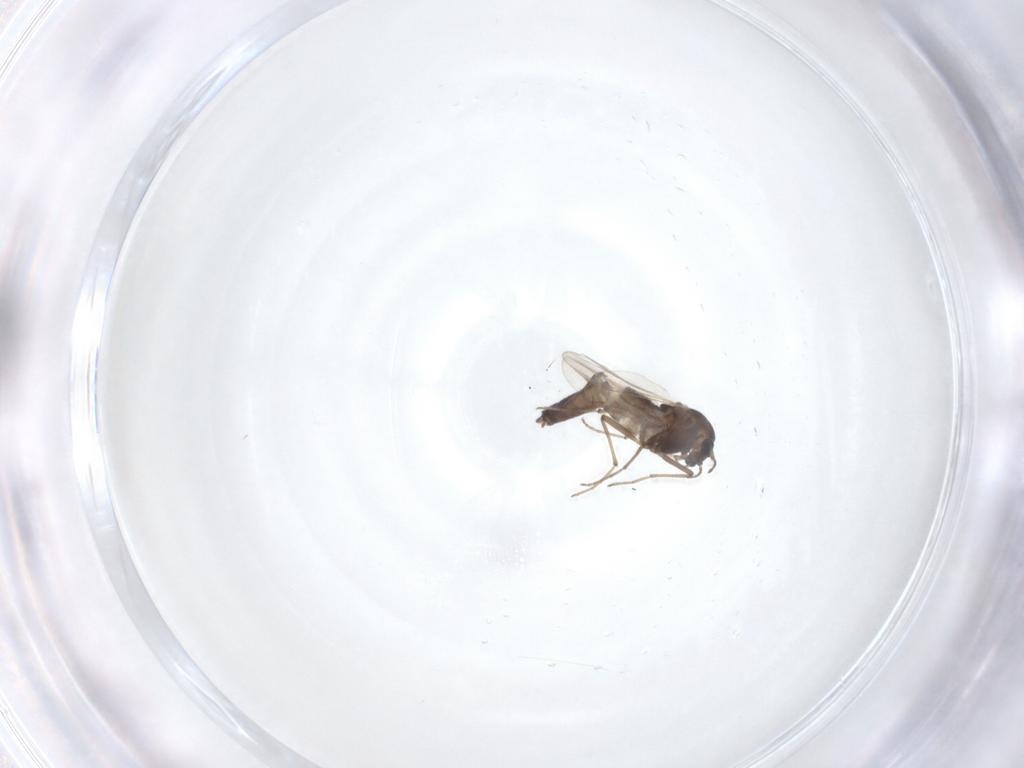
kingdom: Animalia
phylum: Arthropoda
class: Insecta
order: Diptera
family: Chironomidae
